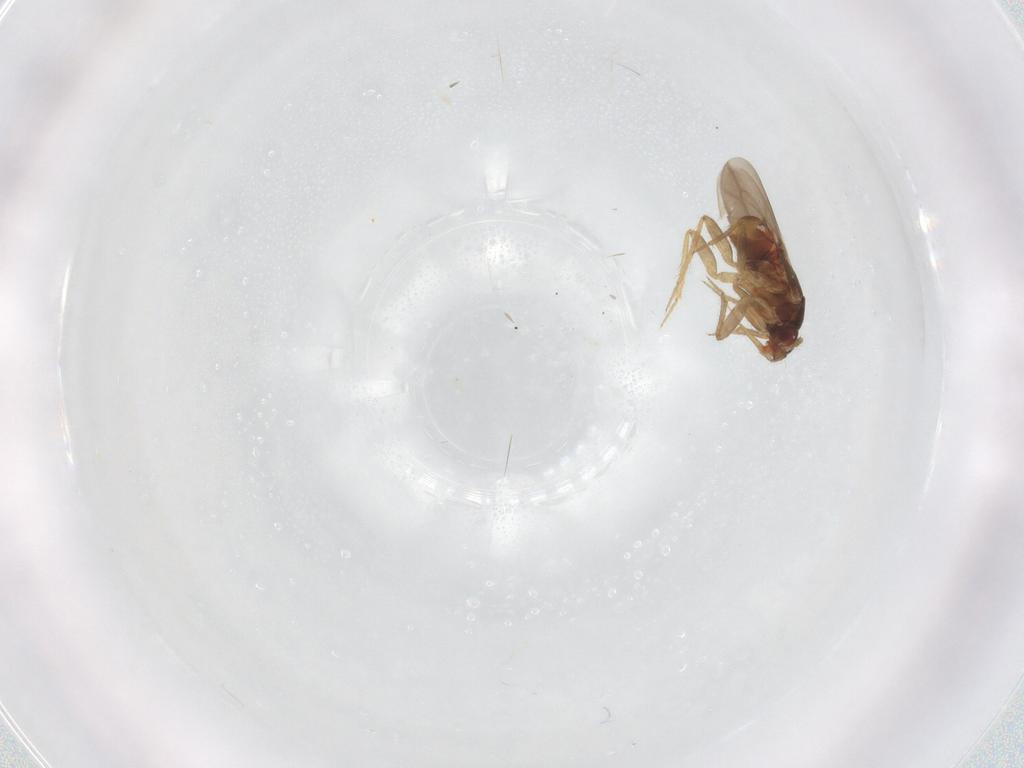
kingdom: Animalia
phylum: Arthropoda
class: Insecta
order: Hemiptera
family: Ceratocombidae
